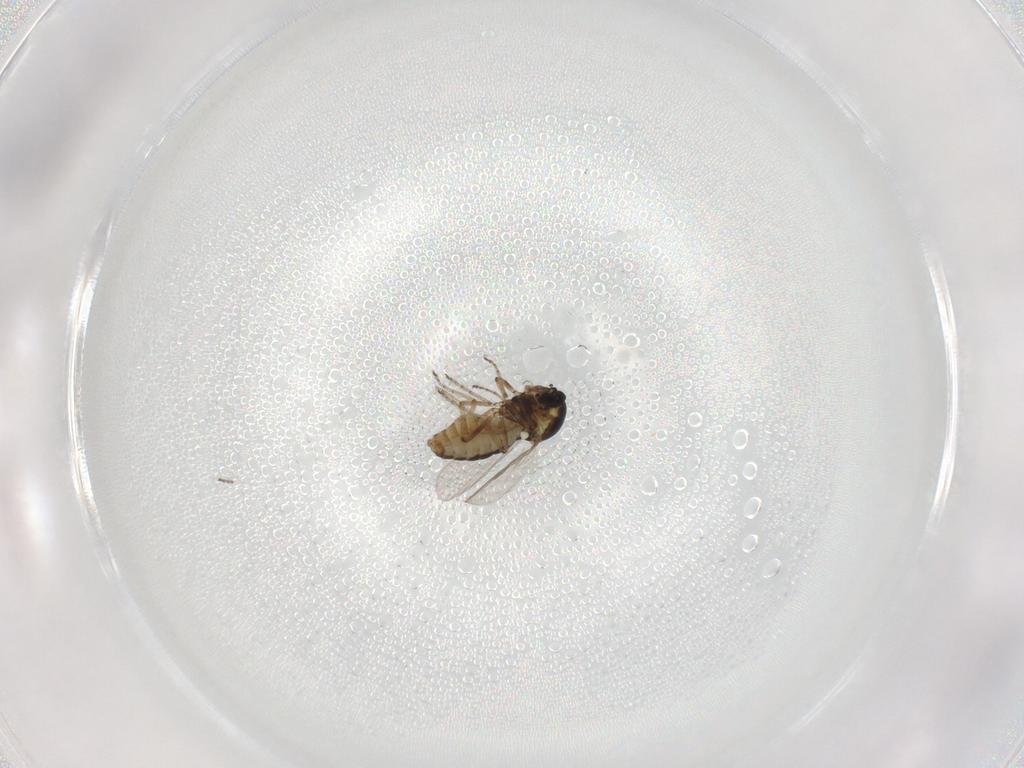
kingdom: Animalia
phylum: Arthropoda
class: Insecta
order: Diptera
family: Ceratopogonidae
